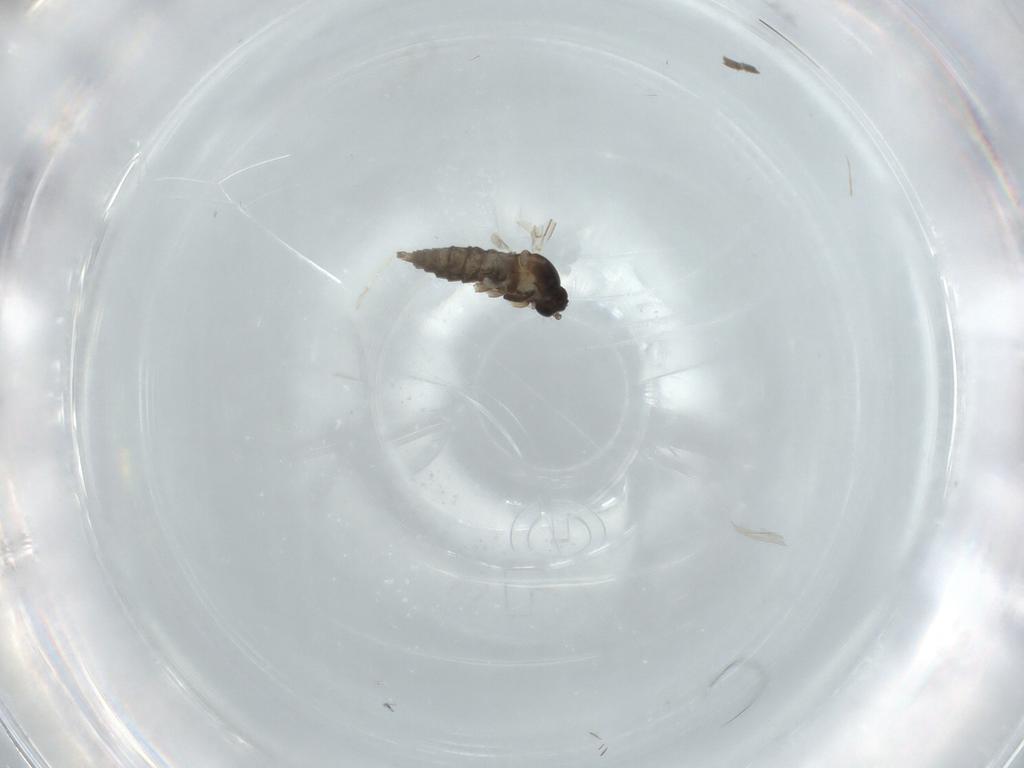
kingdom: Animalia
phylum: Arthropoda
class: Insecta
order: Diptera
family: Cecidomyiidae
